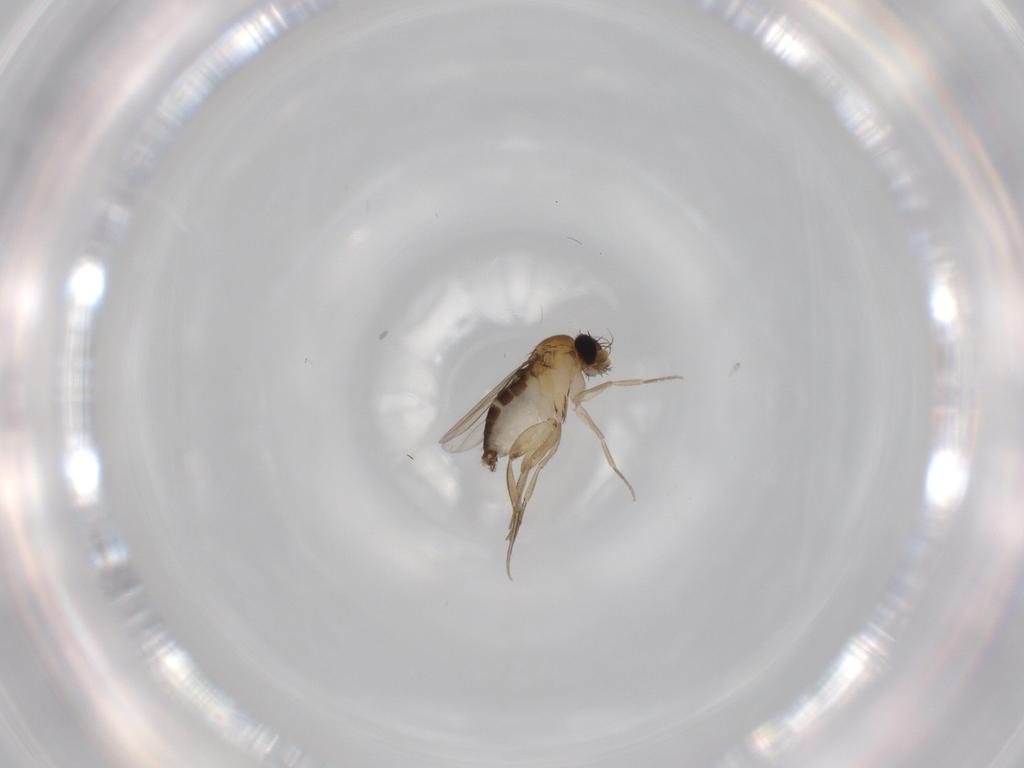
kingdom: Animalia
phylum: Arthropoda
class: Insecta
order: Diptera
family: Phoridae
